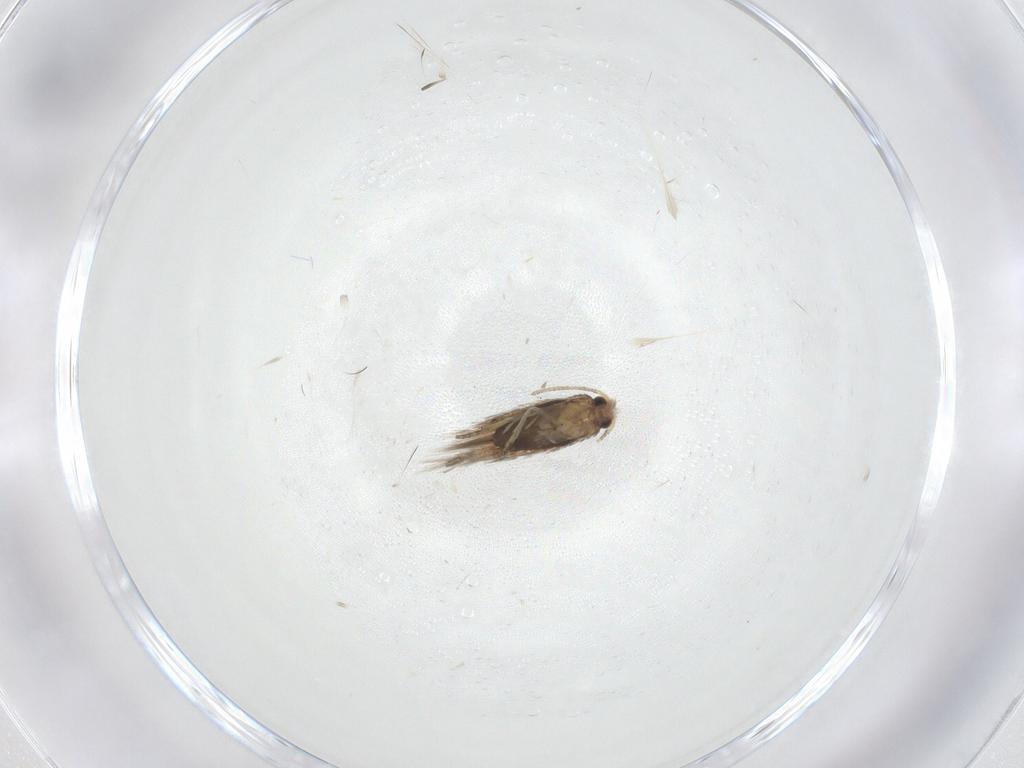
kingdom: Animalia
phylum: Arthropoda
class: Insecta
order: Lepidoptera
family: Nepticulidae
